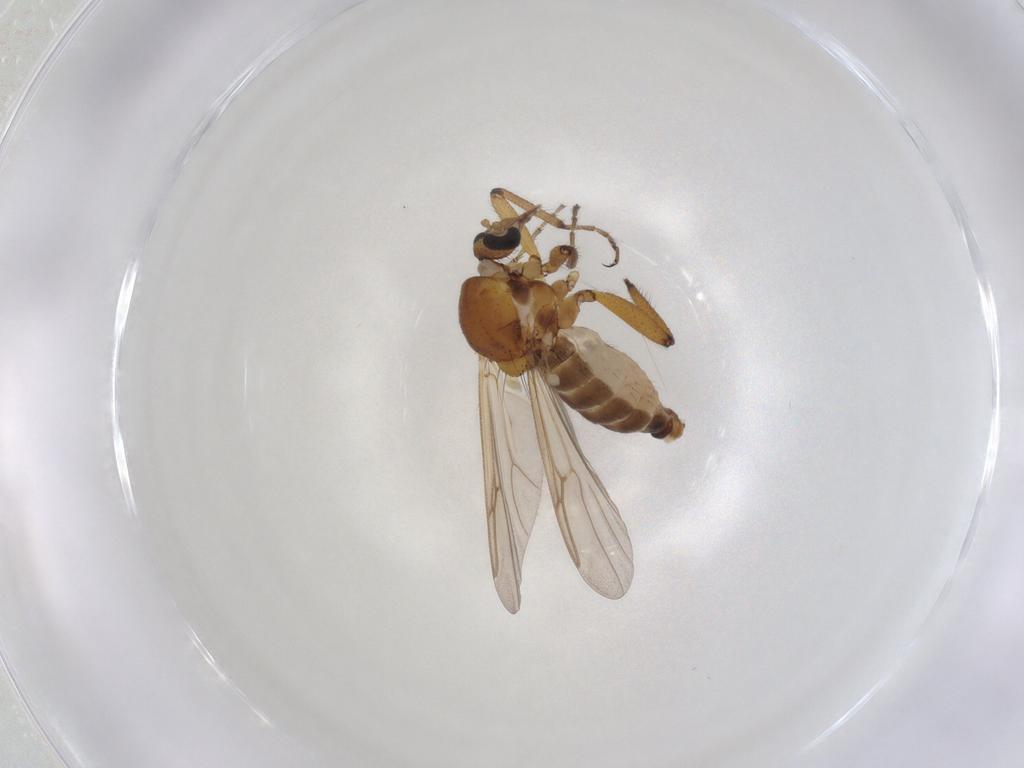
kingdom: Animalia
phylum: Arthropoda
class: Insecta
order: Diptera
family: Ceratopogonidae
